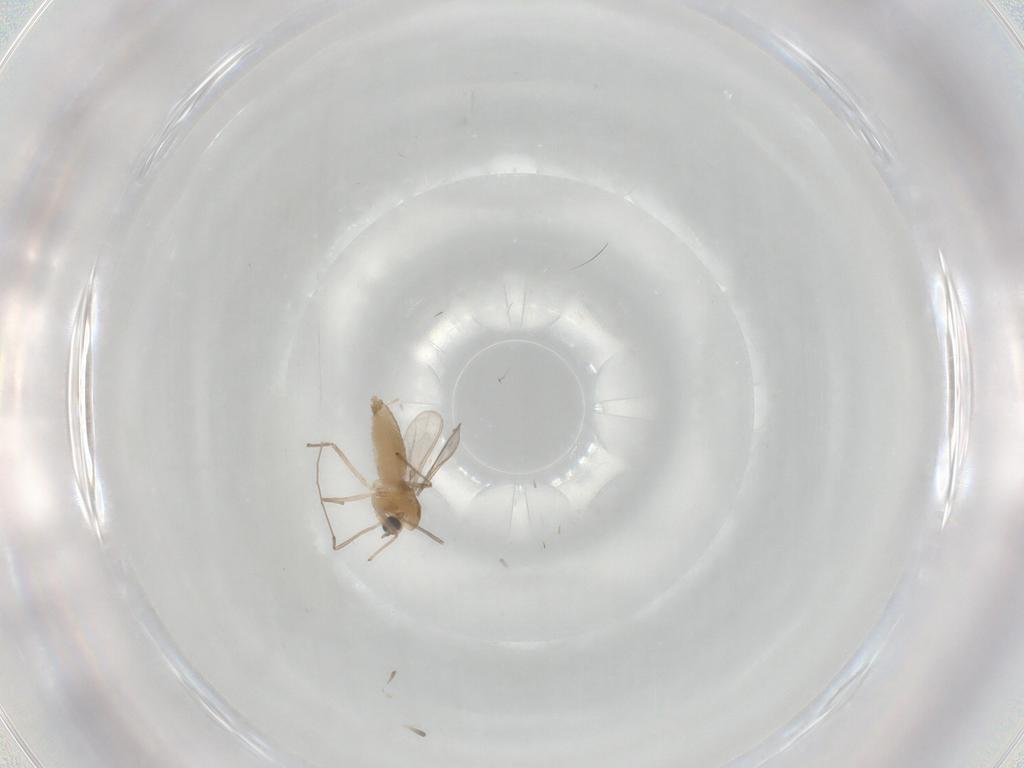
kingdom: Animalia
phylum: Arthropoda
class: Insecta
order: Diptera
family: Chironomidae
